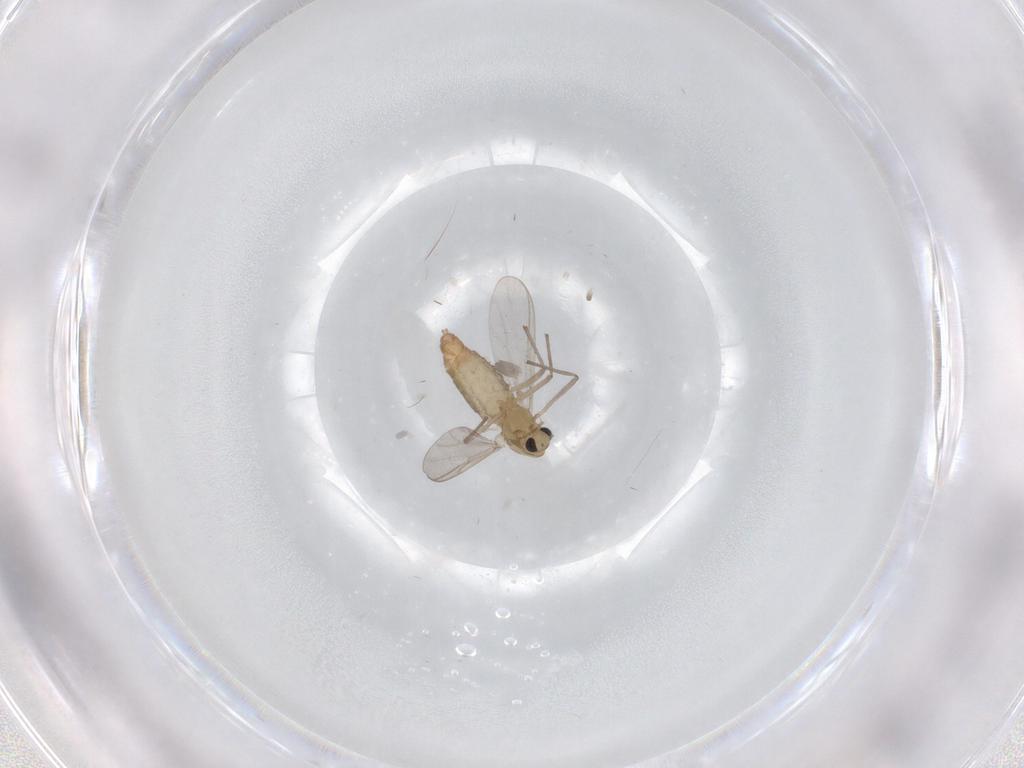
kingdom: Animalia
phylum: Arthropoda
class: Insecta
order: Diptera
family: Chironomidae
